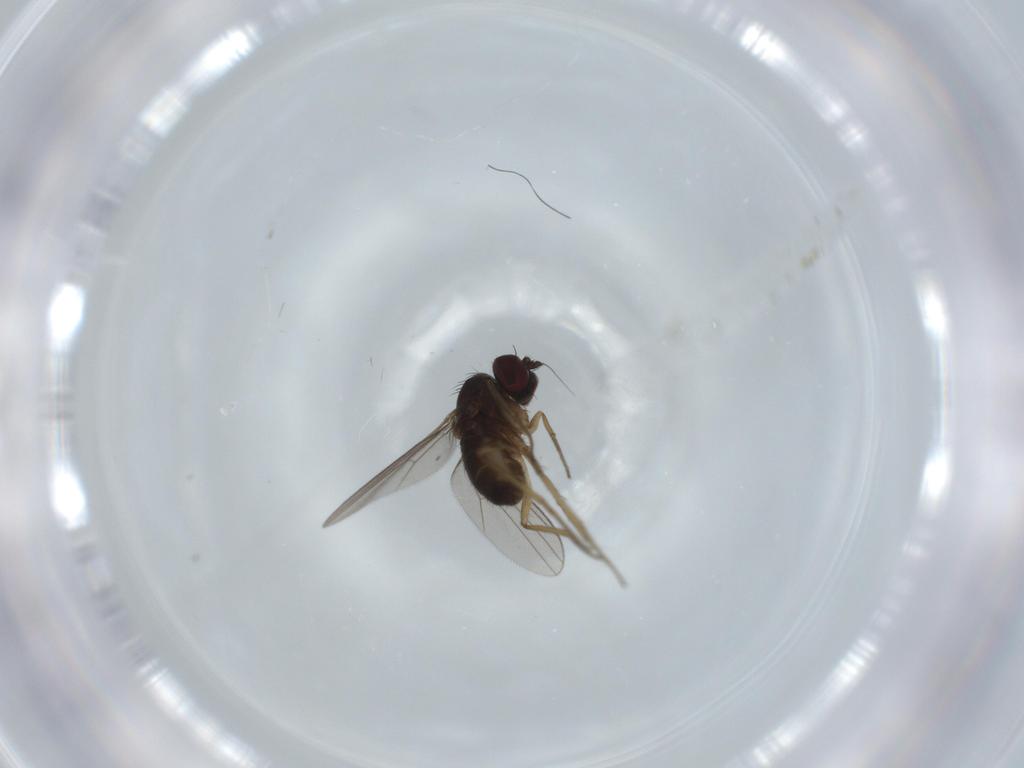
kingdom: Animalia
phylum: Arthropoda
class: Insecta
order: Diptera
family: Dolichopodidae
